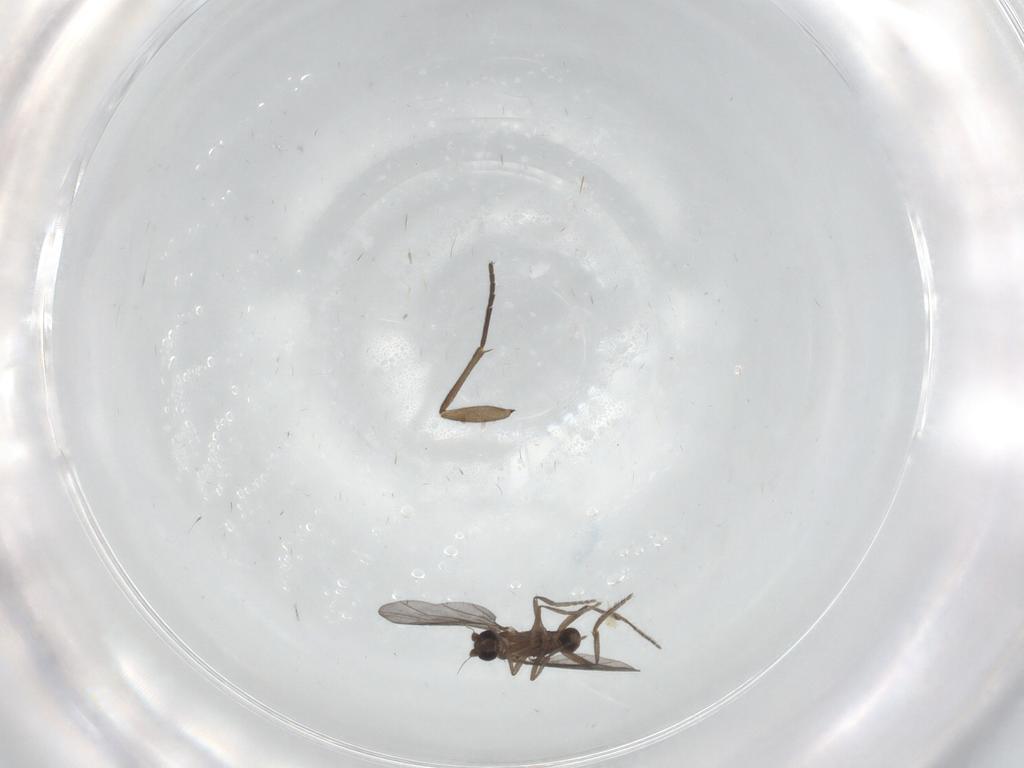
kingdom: Animalia
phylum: Arthropoda
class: Insecta
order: Diptera
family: Phoridae
